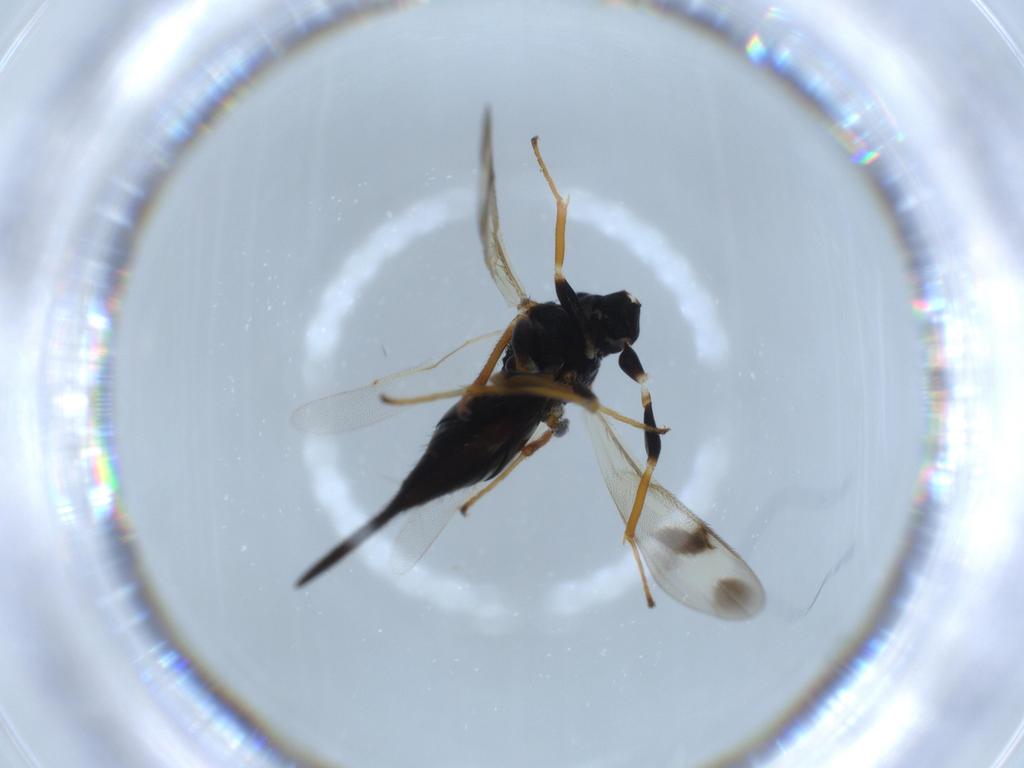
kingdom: Animalia
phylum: Arthropoda
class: Insecta
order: Hymenoptera
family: Diparidae
